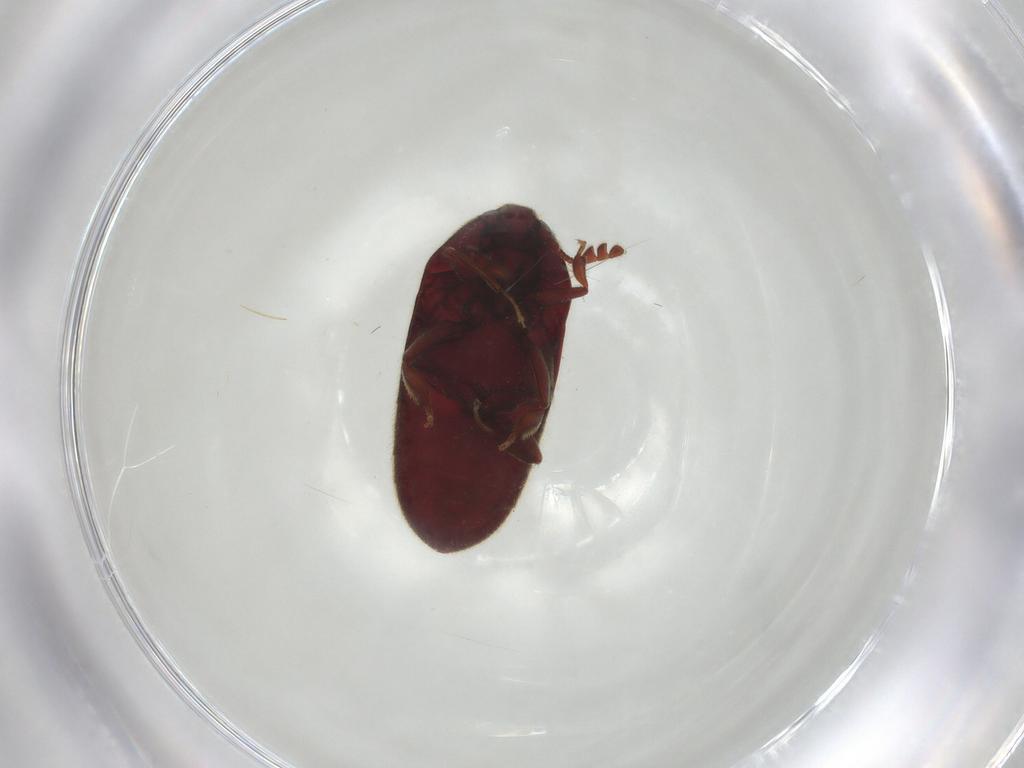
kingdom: Animalia
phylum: Arthropoda
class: Insecta
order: Coleoptera
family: Throscidae
